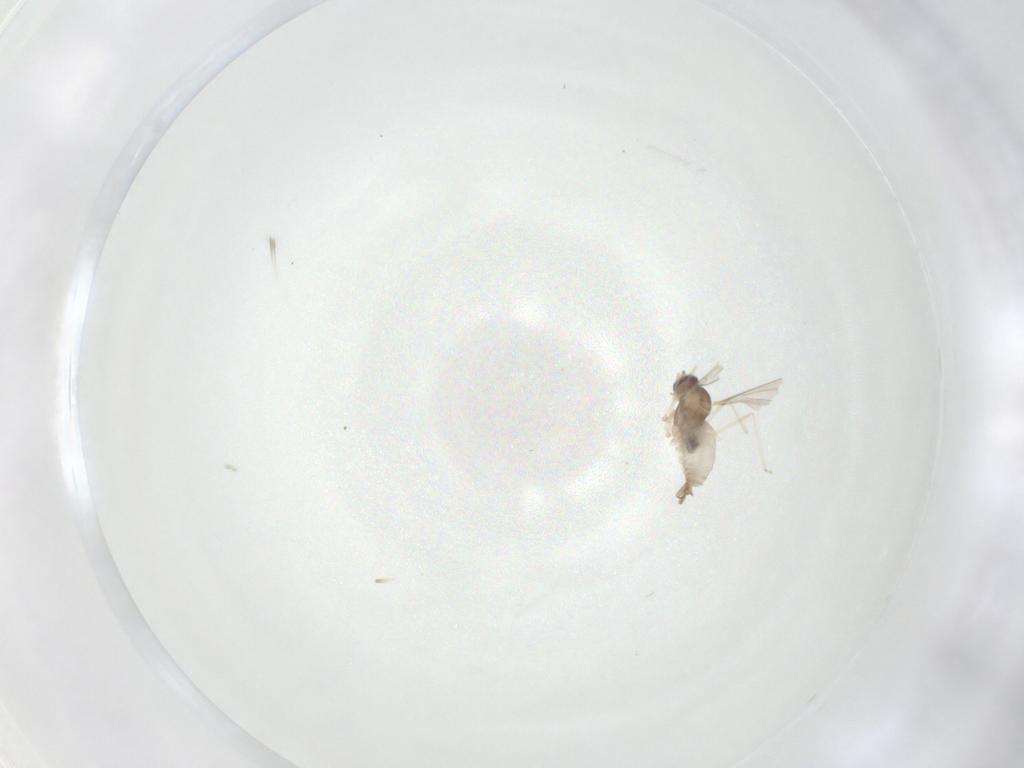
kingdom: Animalia
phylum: Arthropoda
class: Insecta
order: Diptera
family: Cecidomyiidae
